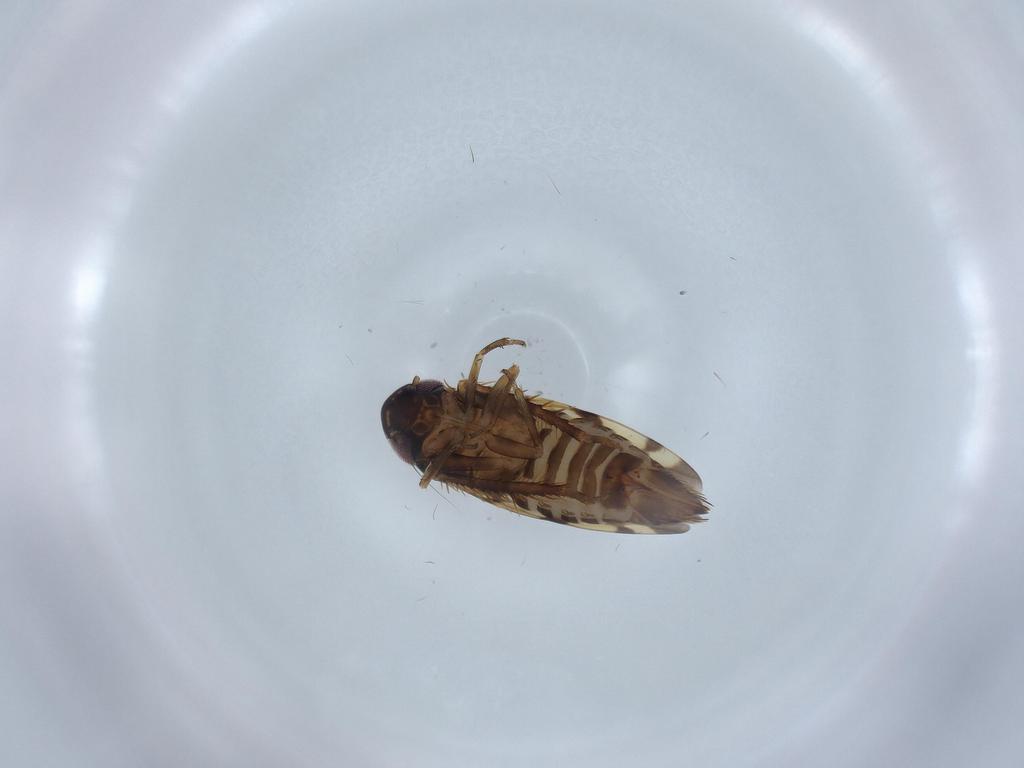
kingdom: Animalia
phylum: Arthropoda
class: Insecta
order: Hemiptera
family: Cicadellidae
